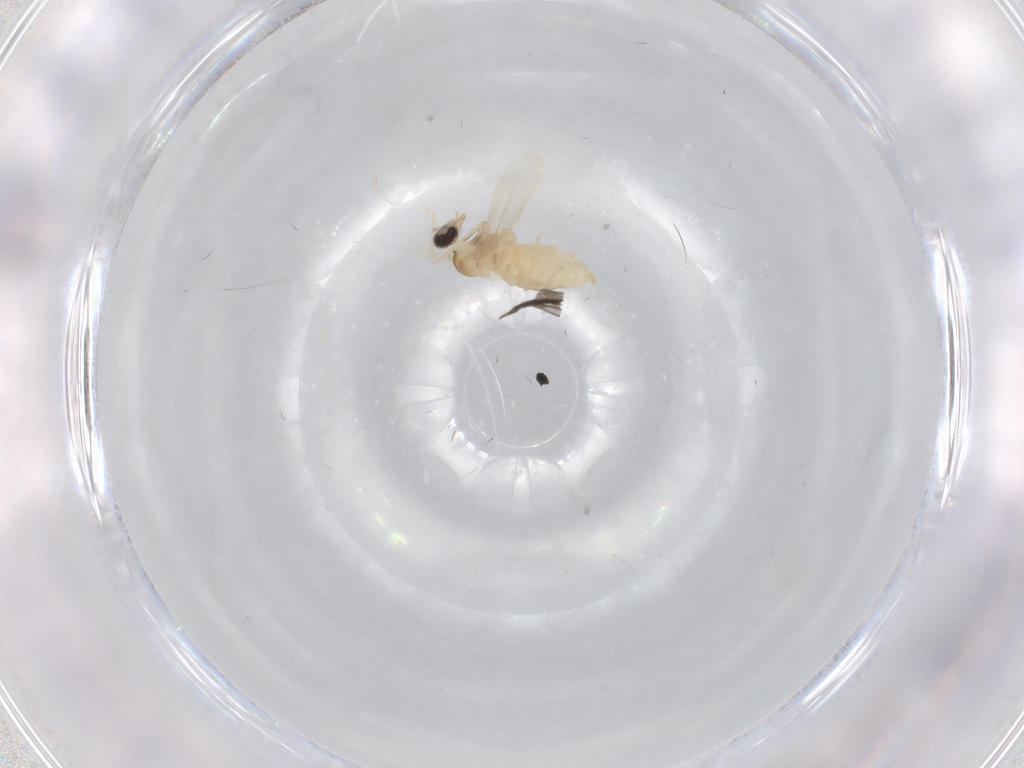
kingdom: Animalia
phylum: Arthropoda
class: Insecta
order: Diptera
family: Cecidomyiidae
